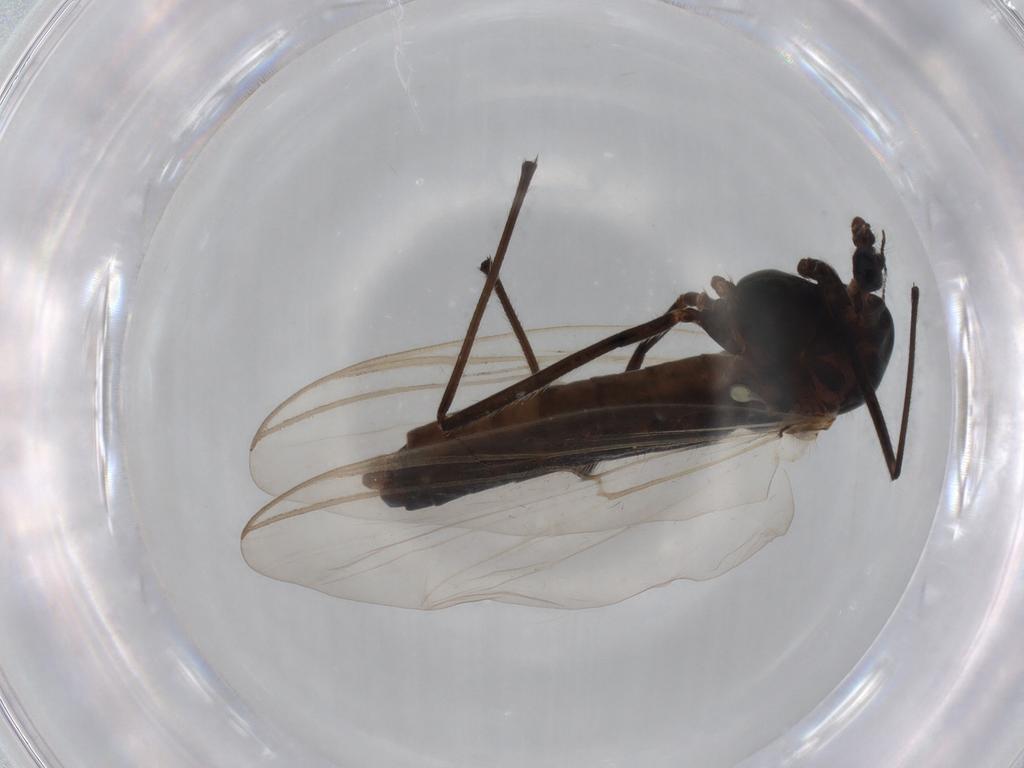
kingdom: Animalia
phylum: Arthropoda
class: Insecta
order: Diptera
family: Chironomidae
